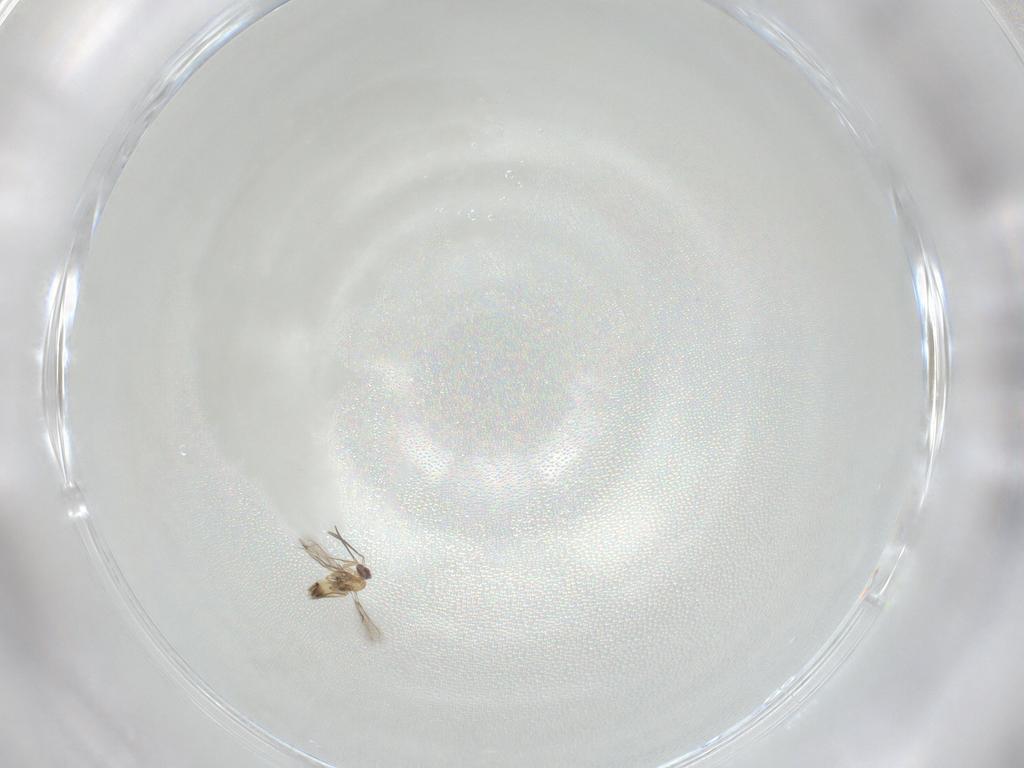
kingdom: Animalia
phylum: Arthropoda
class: Insecta
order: Hymenoptera
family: Mymaridae
